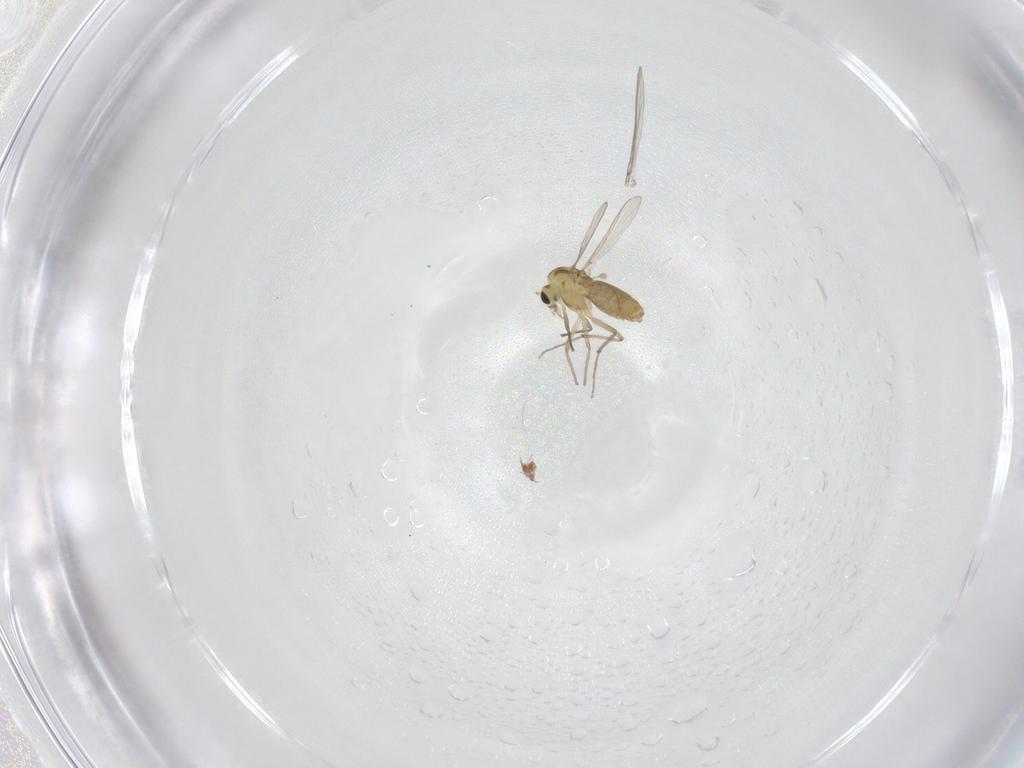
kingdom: Animalia
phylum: Arthropoda
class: Insecta
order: Diptera
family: Chironomidae
